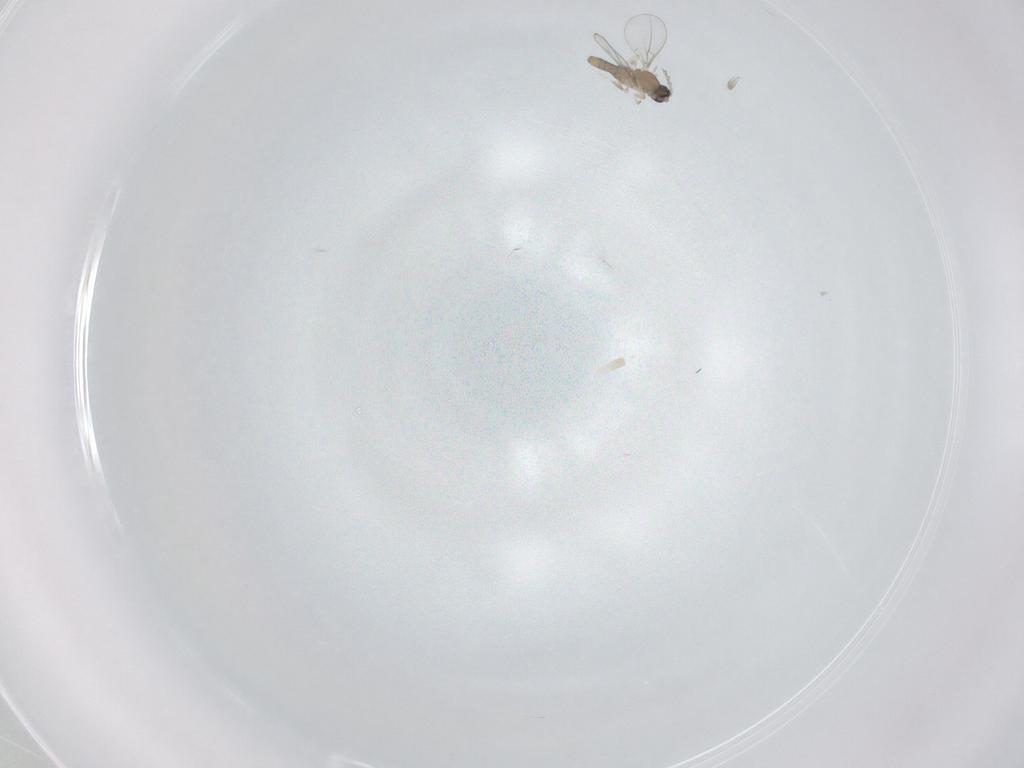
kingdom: Animalia
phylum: Arthropoda
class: Insecta
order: Diptera
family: Cecidomyiidae
